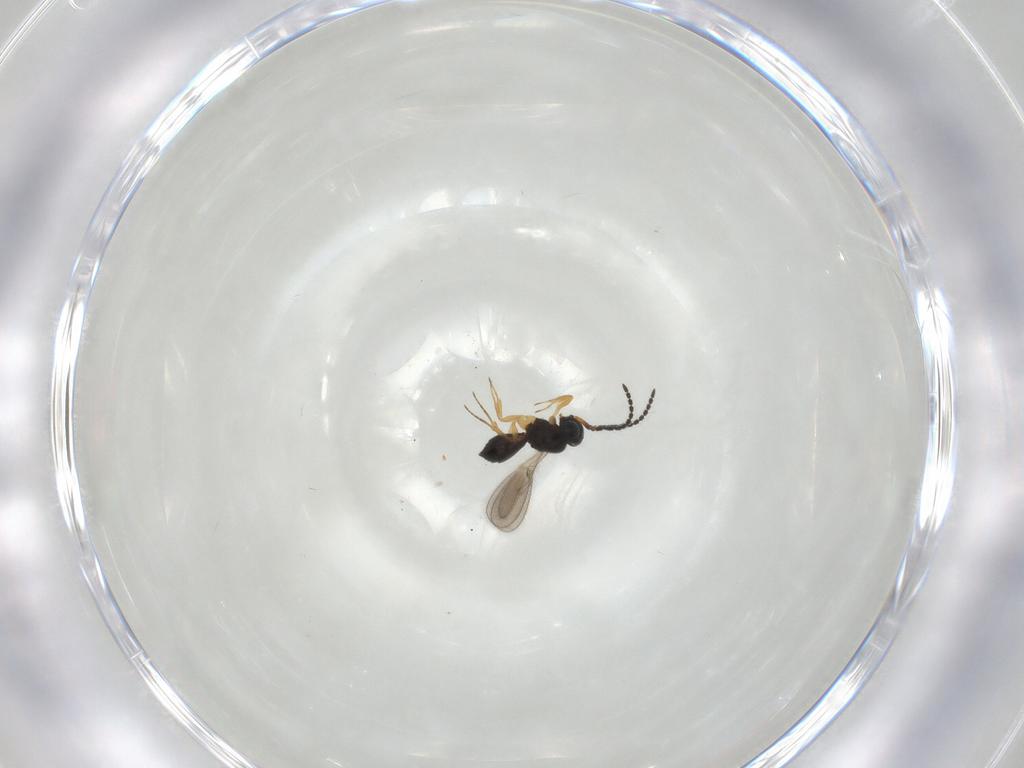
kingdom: Animalia
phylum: Arthropoda
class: Insecta
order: Hymenoptera
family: Scelionidae
